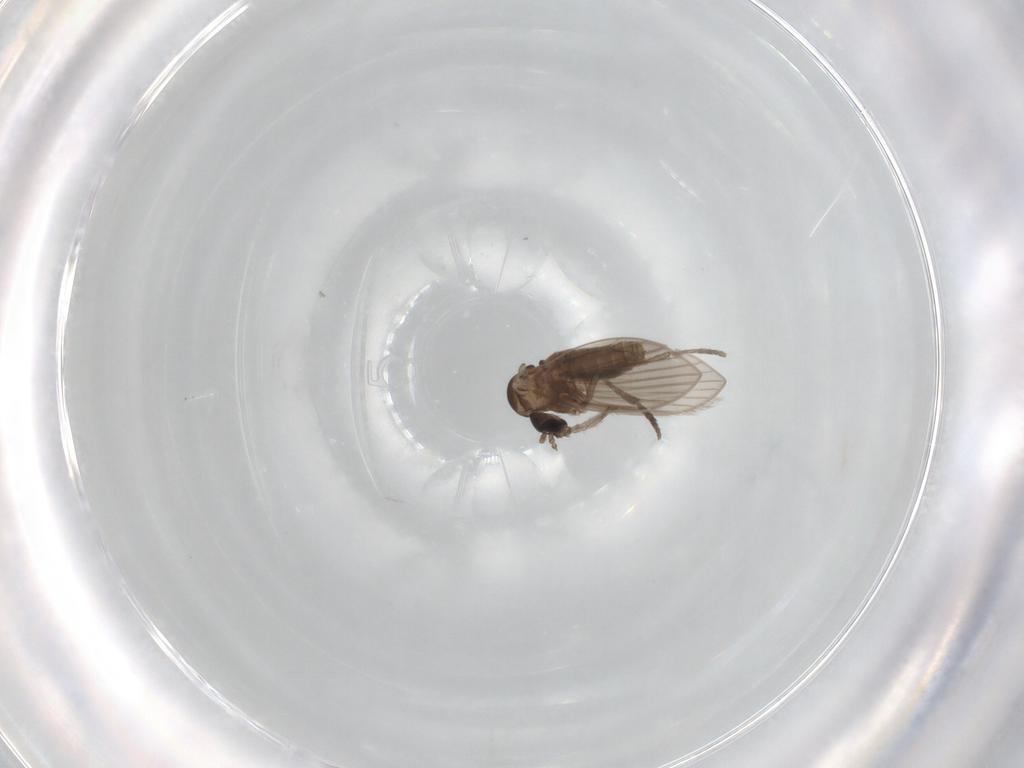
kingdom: Animalia
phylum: Arthropoda
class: Insecta
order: Diptera
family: Psychodidae
